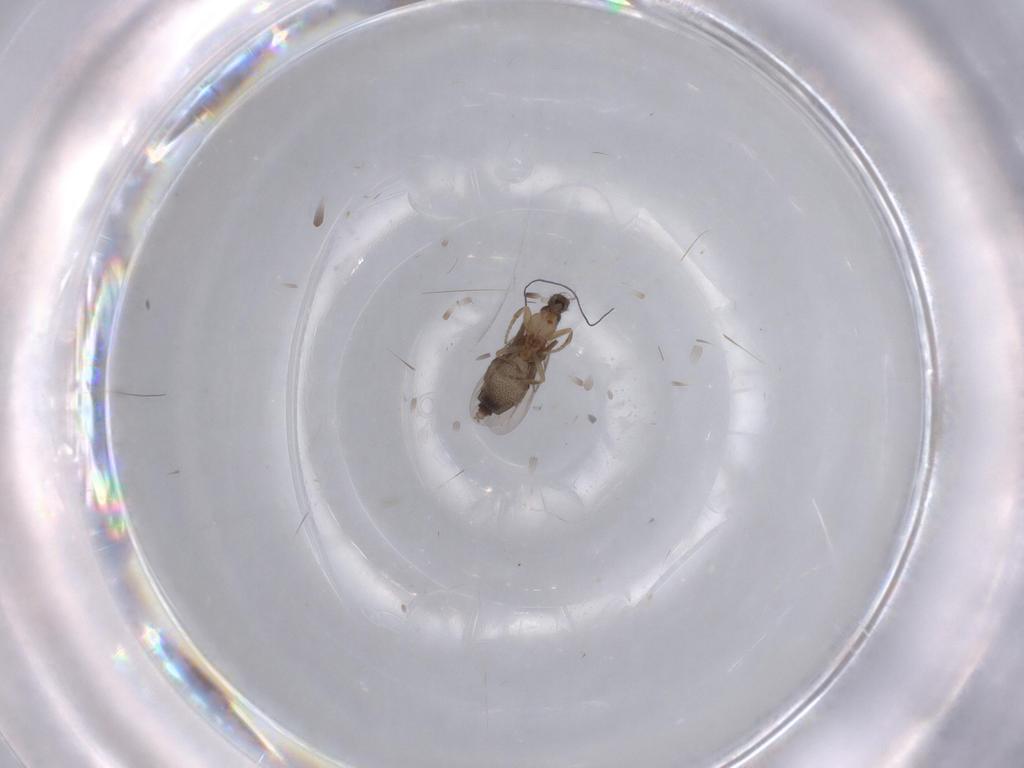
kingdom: Animalia
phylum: Arthropoda
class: Insecta
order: Diptera
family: Phoridae
